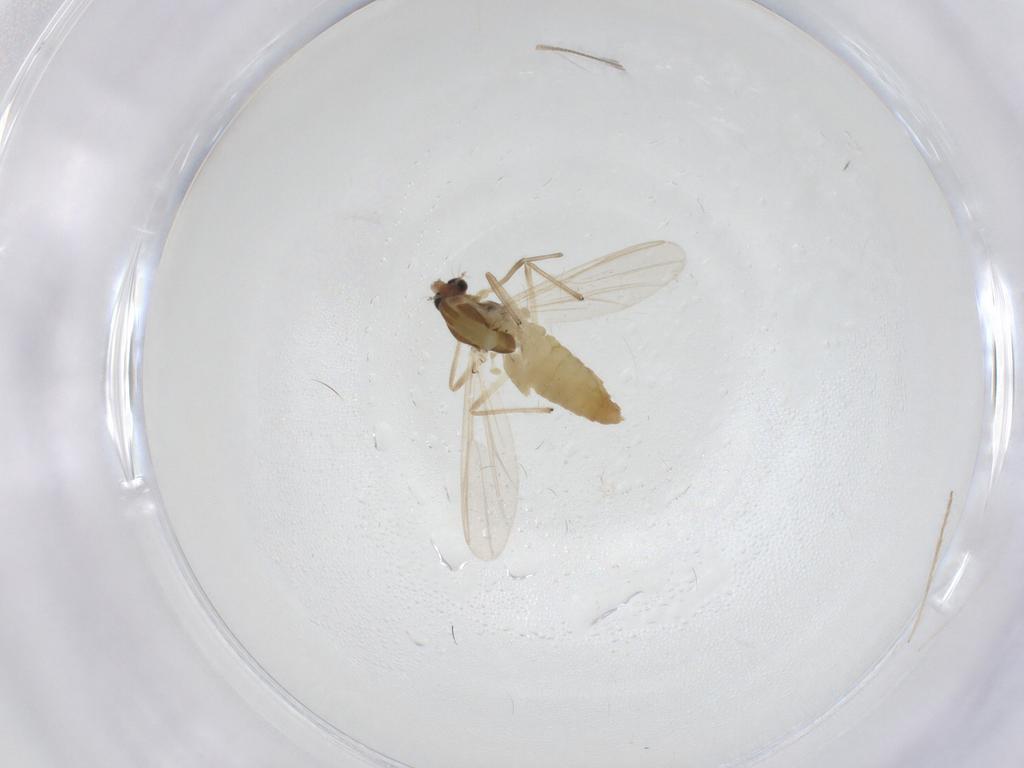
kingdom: Animalia
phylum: Arthropoda
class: Insecta
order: Diptera
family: Chironomidae
